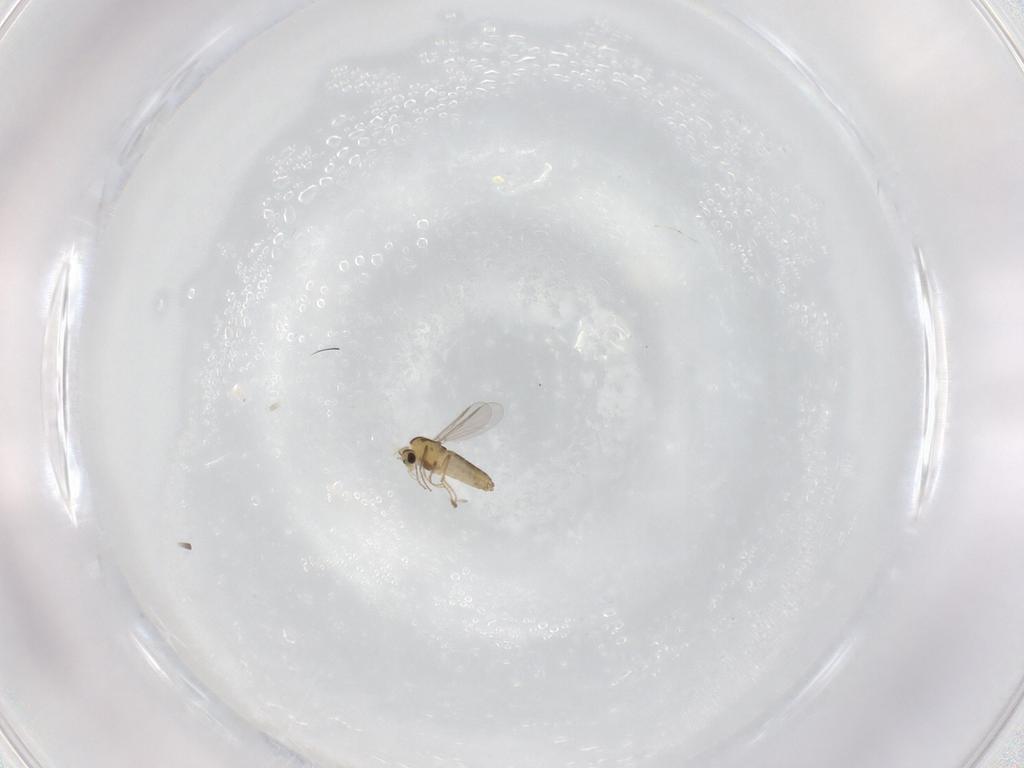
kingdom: Animalia
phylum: Arthropoda
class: Insecta
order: Diptera
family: Chironomidae
